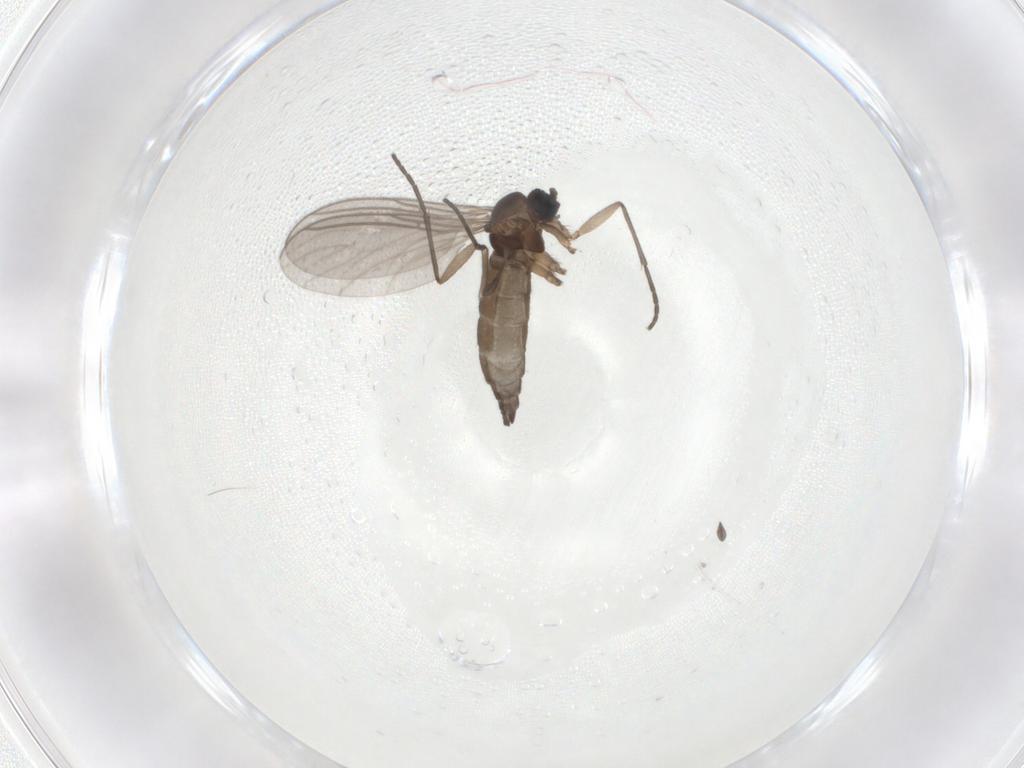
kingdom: Animalia
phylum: Arthropoda
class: Insecta
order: Diptera
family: Sciaridae
